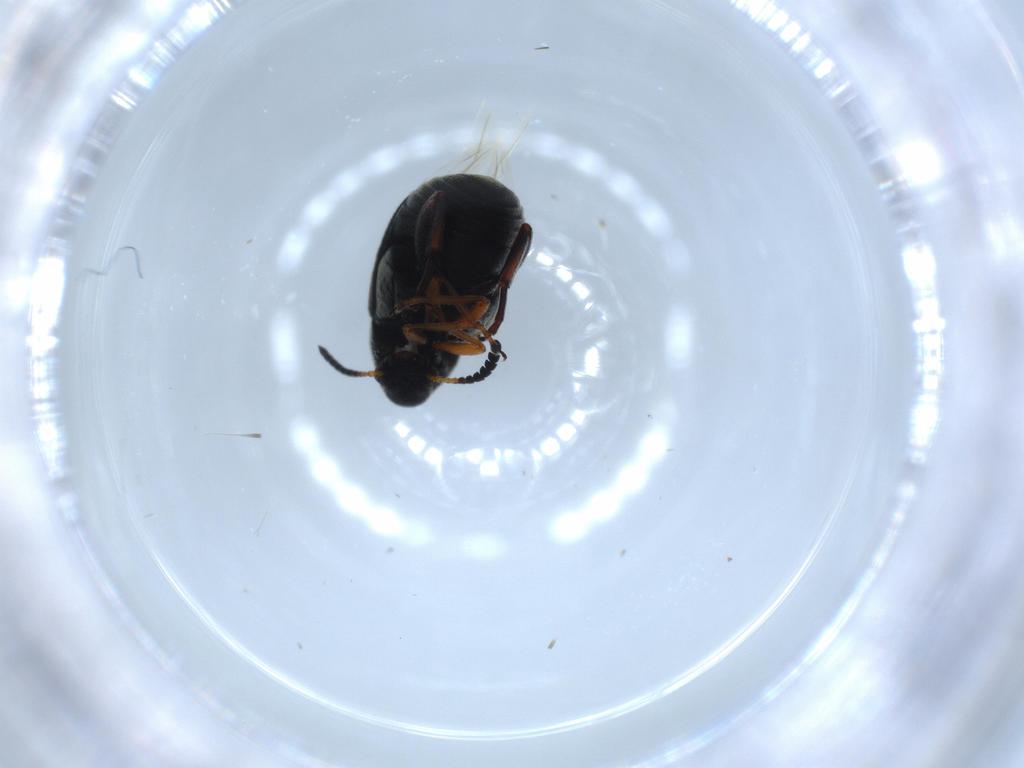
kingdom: Animalia
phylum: Arthropoda
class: Insecta
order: Coleoptera
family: Chrysomelidae
